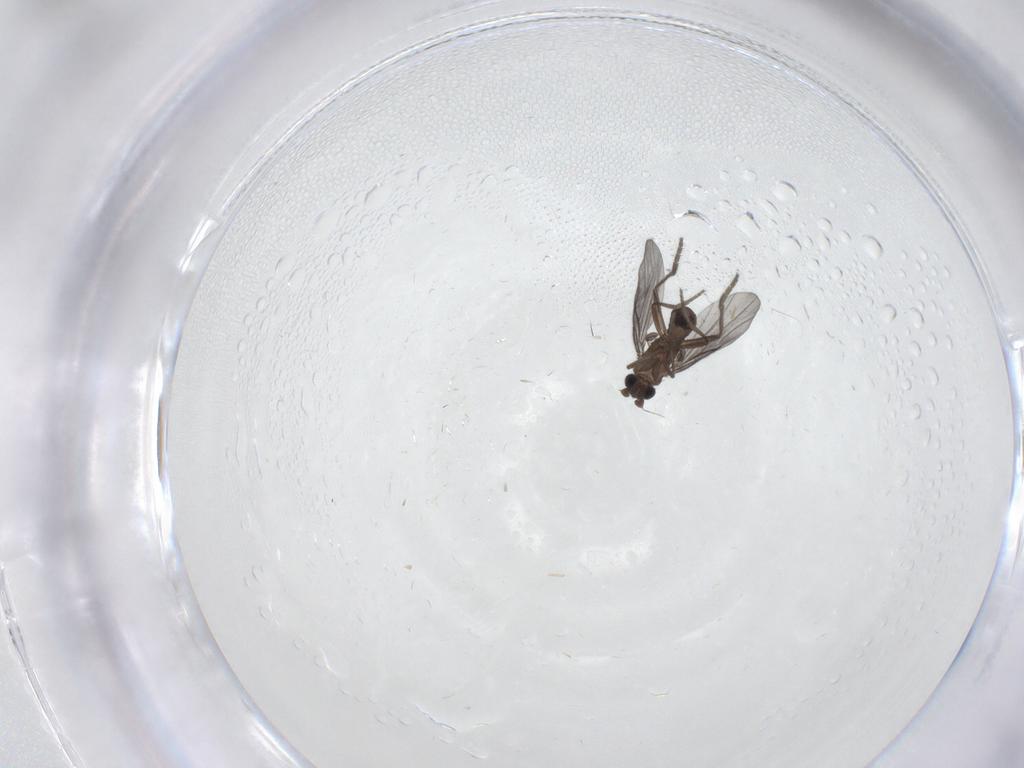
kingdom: Animalia
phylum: Arthropoda
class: Insecta
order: Diptera
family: Phoridae
